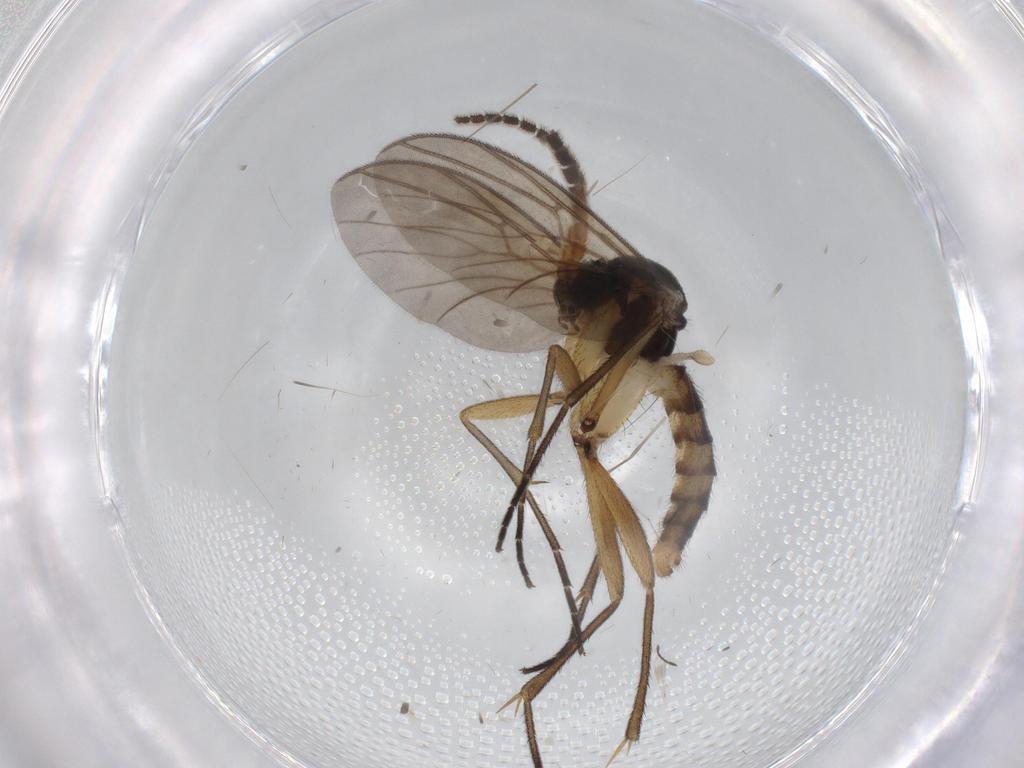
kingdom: Animalia
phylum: Arthropoda
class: Insecta
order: Diptera
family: Mycetophilidae
